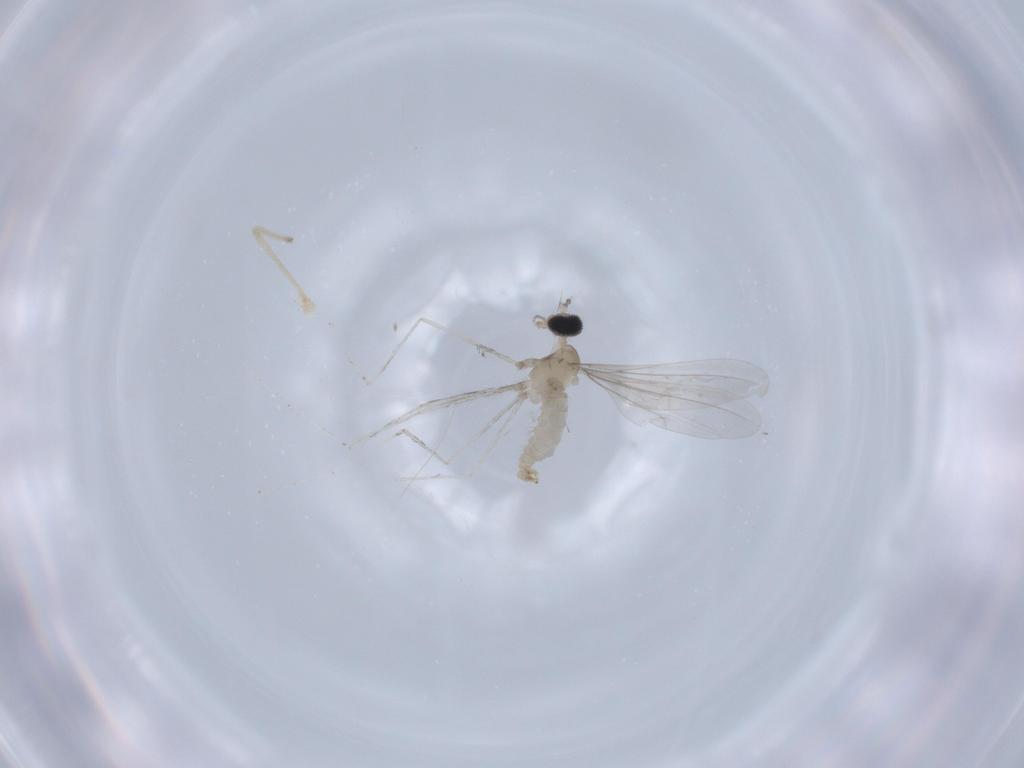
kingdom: Animalia
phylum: Arthropoda
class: Insecta
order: Diptera
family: Cecidomyiidae
